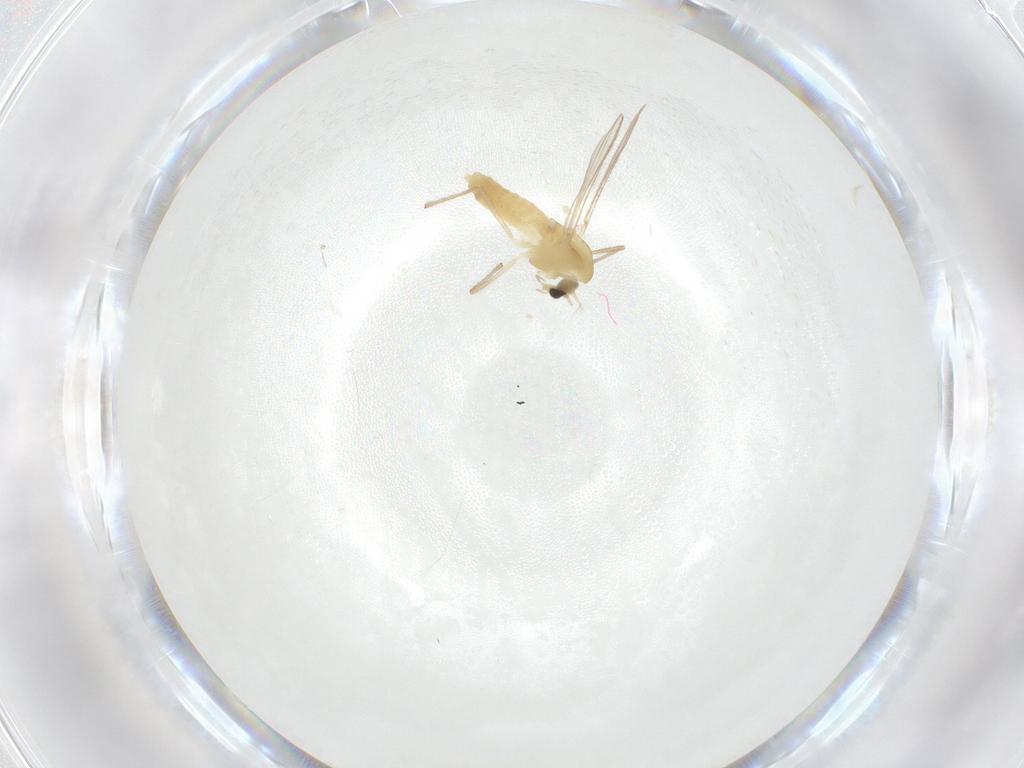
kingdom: Animalia
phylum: Arthropoda
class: Insecta
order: Diptera
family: Chironomidae
